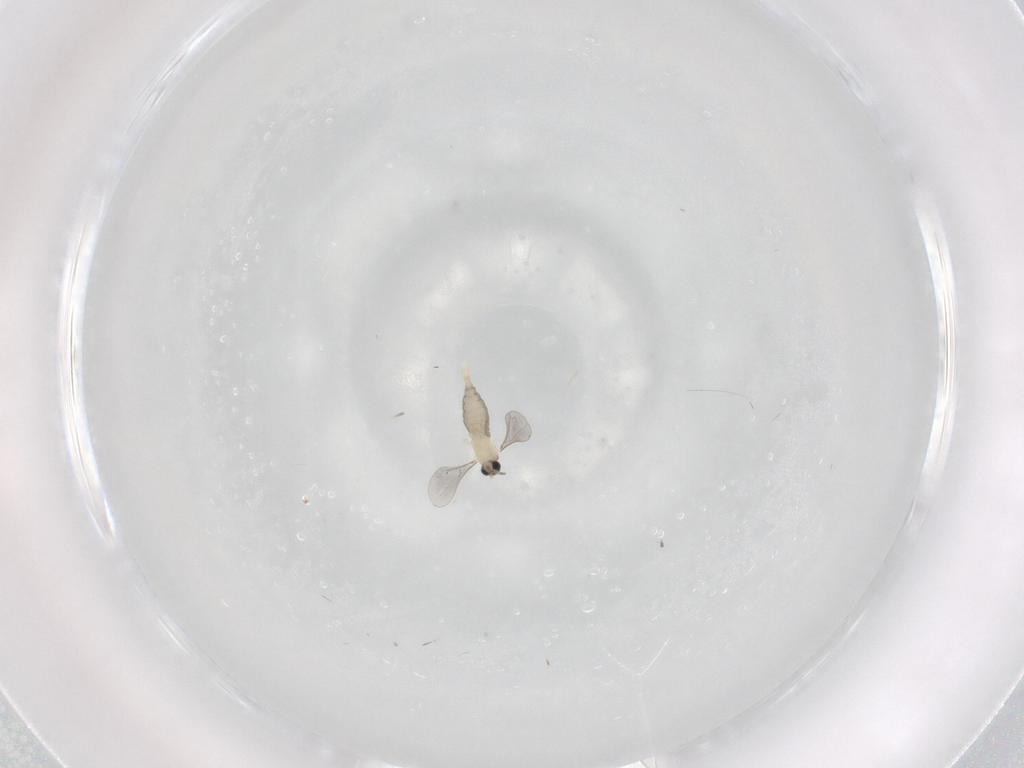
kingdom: Animalia
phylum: Arthropoda
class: Insecta
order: Diptera
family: Cecidomyiidae
